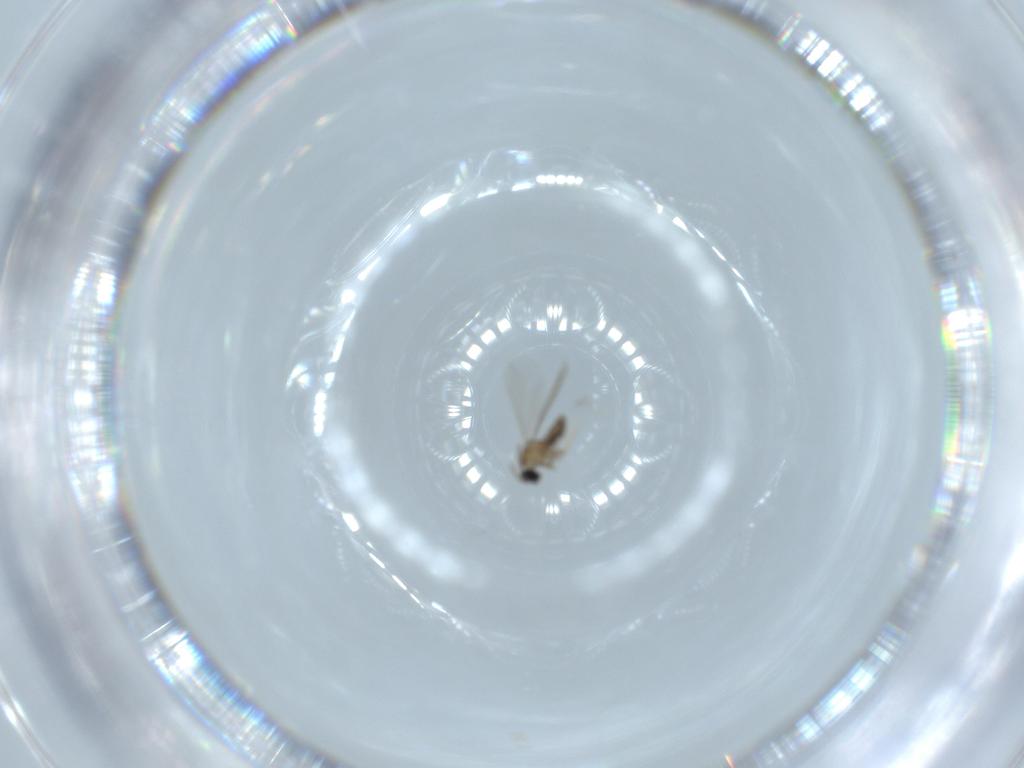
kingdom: Animalia
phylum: Arthropoda
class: Insecta
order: Diptera
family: Cecidomyiidae
